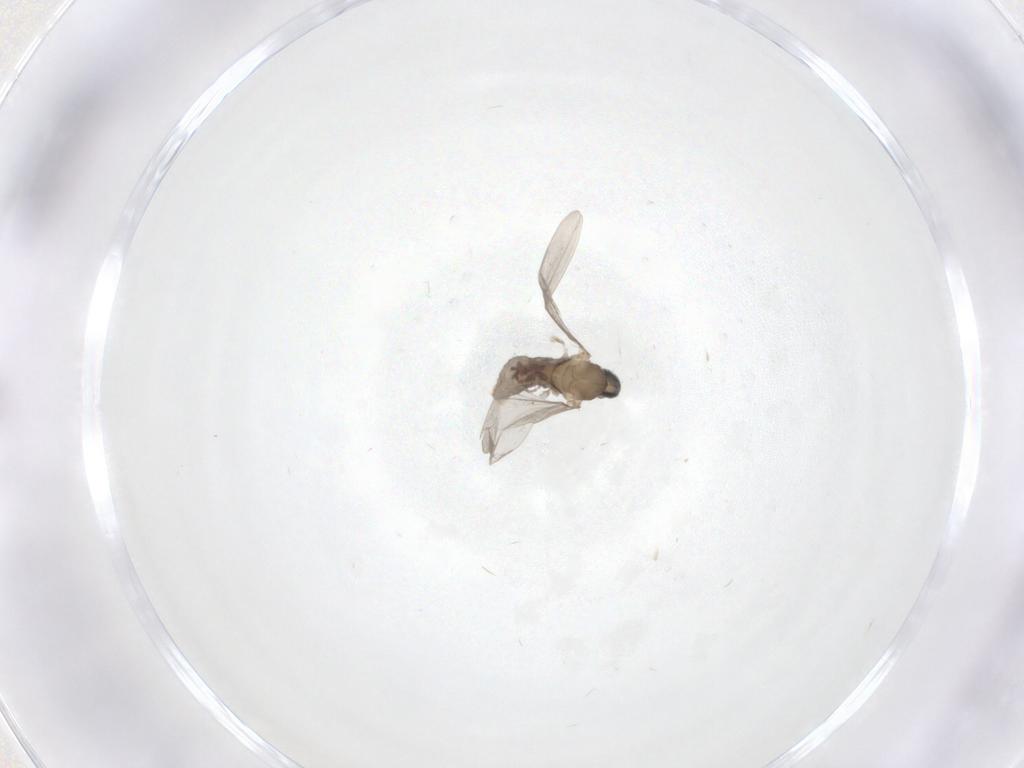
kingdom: Animalia
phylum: Arthropoda
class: Insecta
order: Diptera
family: Cecidomyiidae
